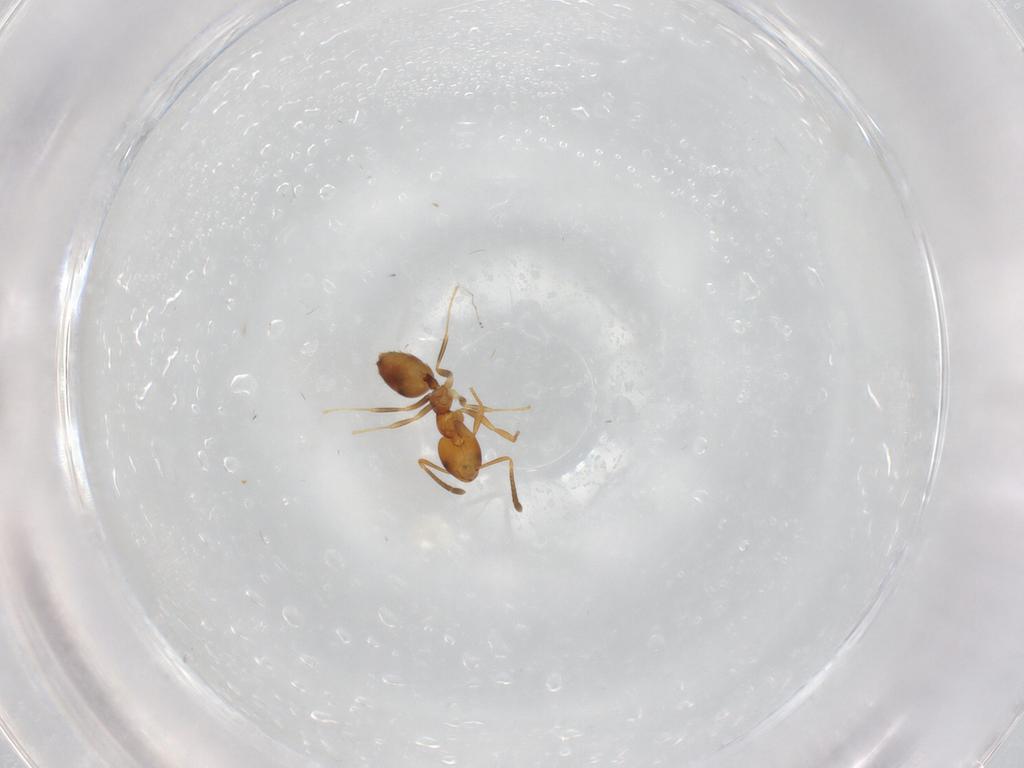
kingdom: Animalia
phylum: Arthropoda
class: Insecta
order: Hymenoptera
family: Formicidae
